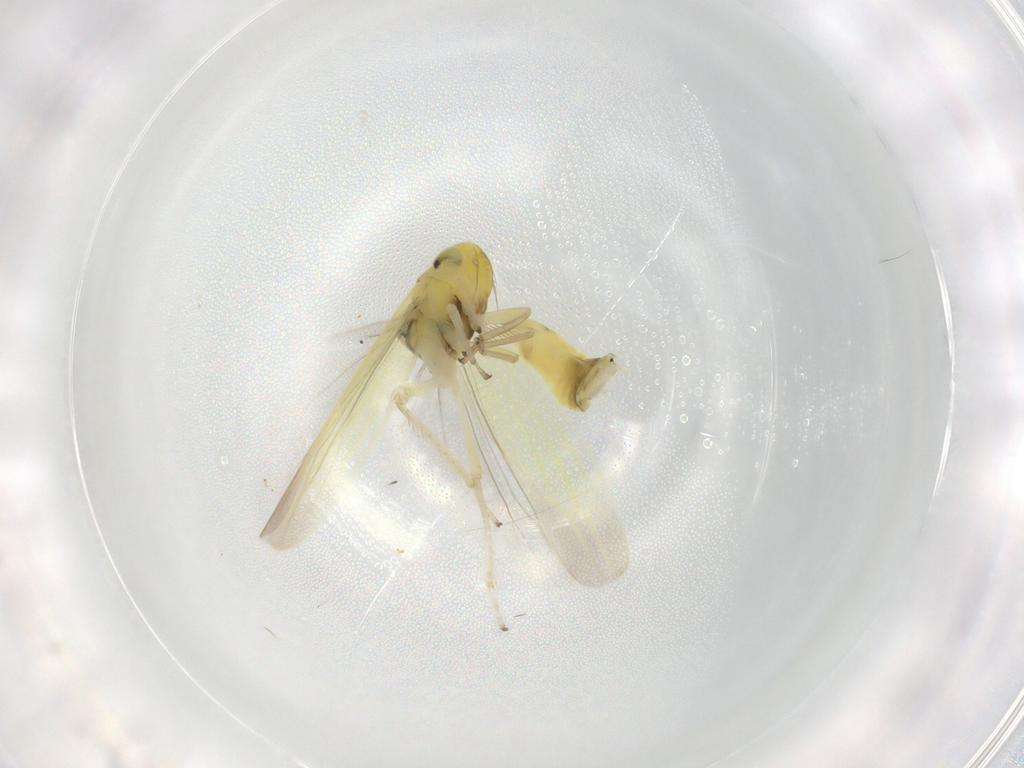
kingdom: Animalia
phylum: Arthropoda
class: Insecta
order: Hemiptera
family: Cicadellidae
